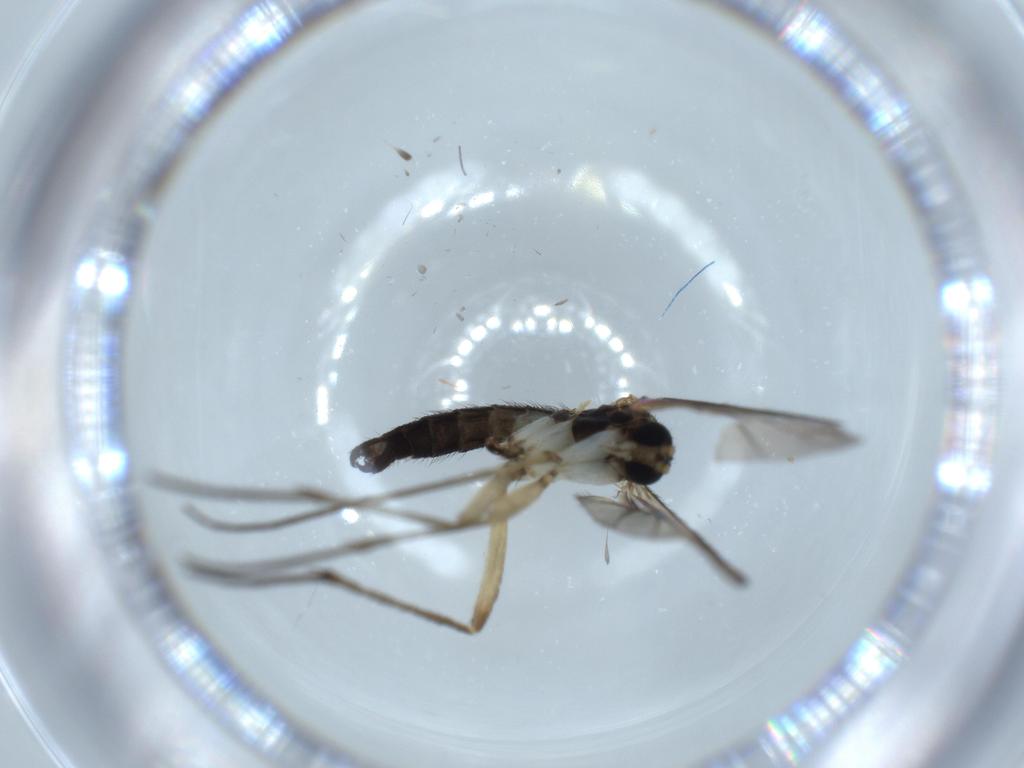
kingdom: Animalia
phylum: Arthropoda
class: Insecta
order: Diptera
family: Sciaridae
